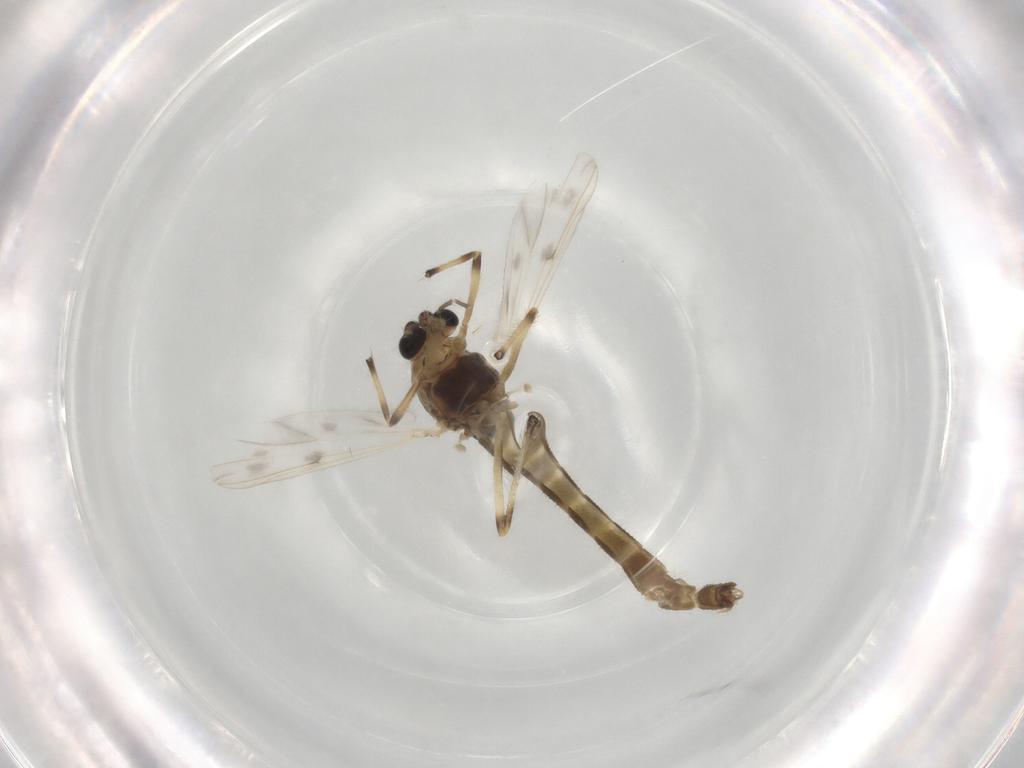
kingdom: Animalia
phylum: Arthropoda
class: Insecta
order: Diptera
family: Chironomidae
